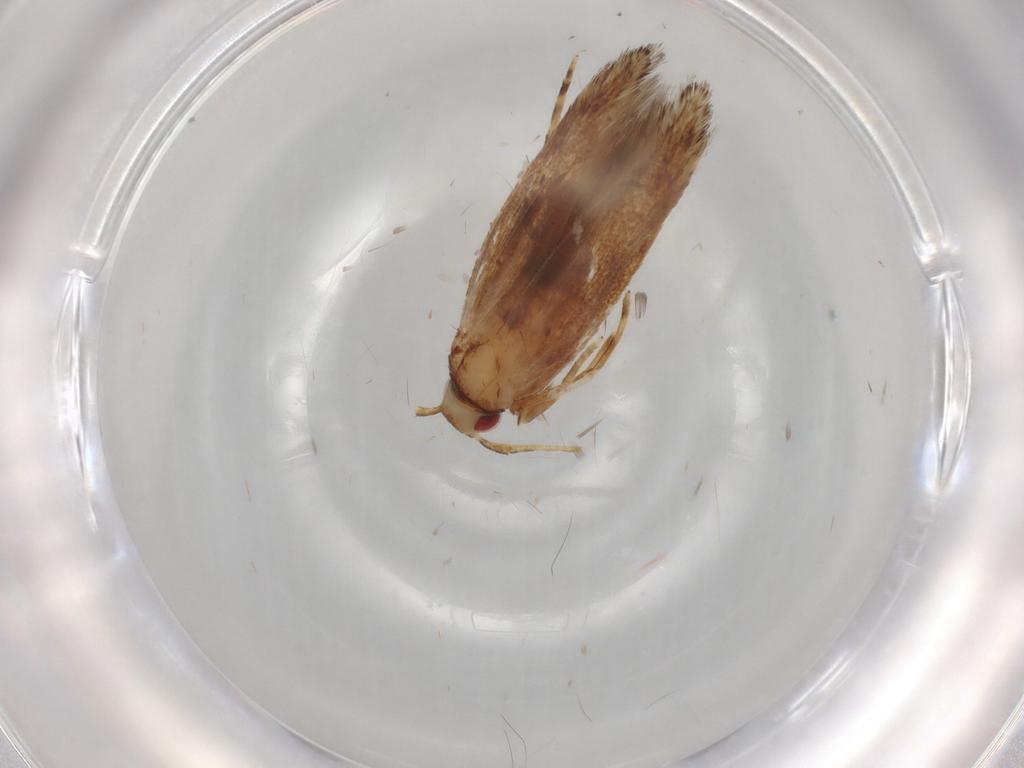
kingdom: Animalia
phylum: Arthropoda
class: Insecta
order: Lepidoptera
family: Cosmopterigidae
